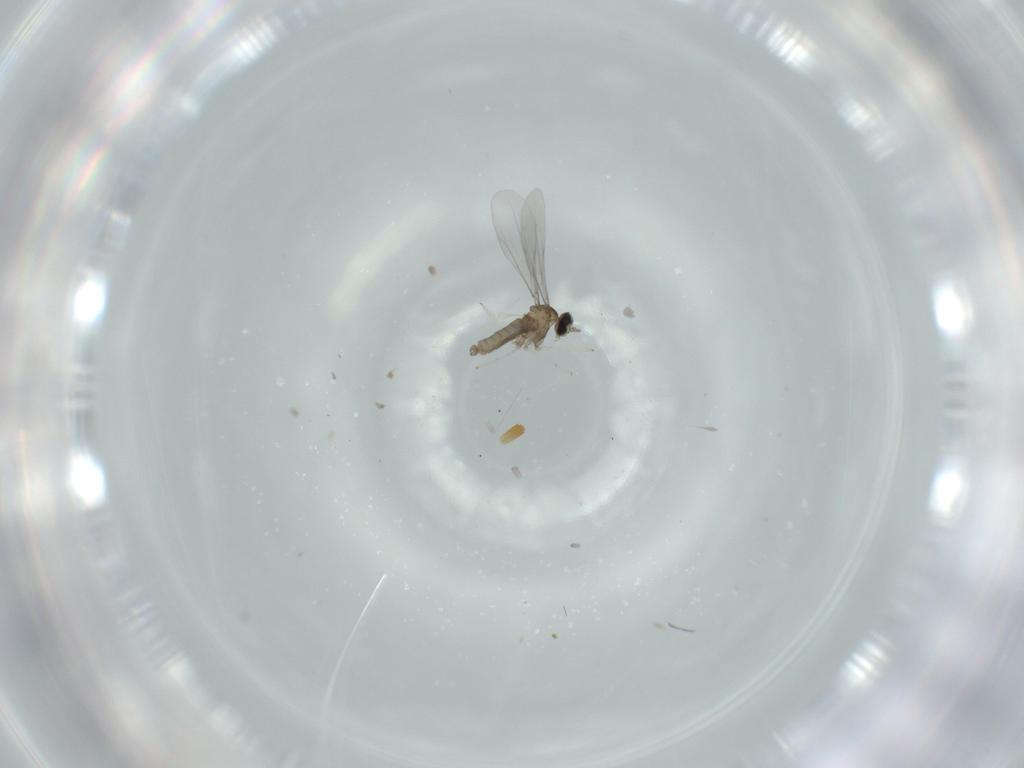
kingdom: Animalia
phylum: Arthropoda
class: Insecta
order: Diptera
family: Cecidomyiidae
